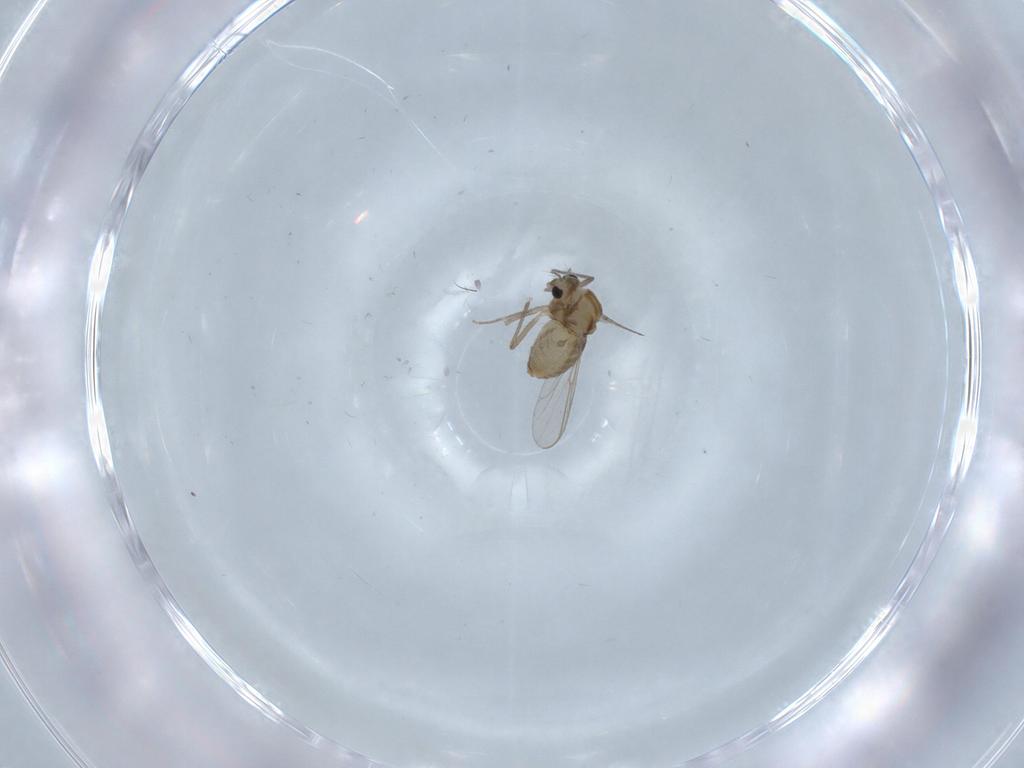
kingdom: Animalia
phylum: Arthropoda
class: Insecta
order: Diptera
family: Chironomidae
